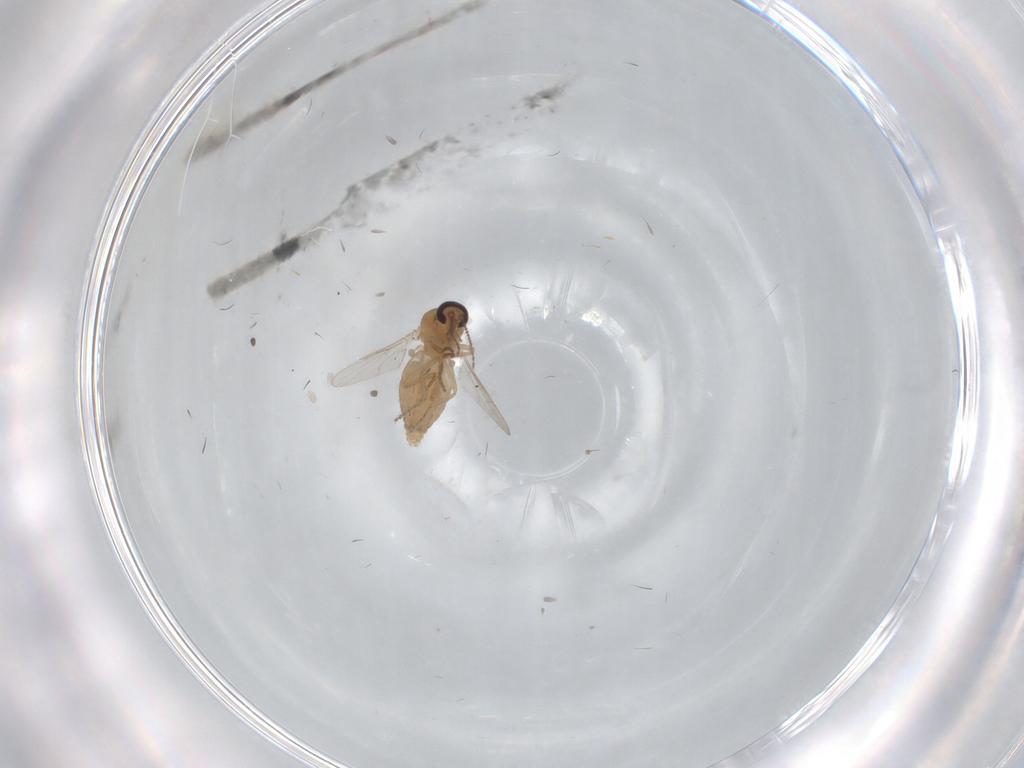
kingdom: Animalia
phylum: Arthropoda
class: Insecta
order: Diptera
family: Ceratopogonidae
